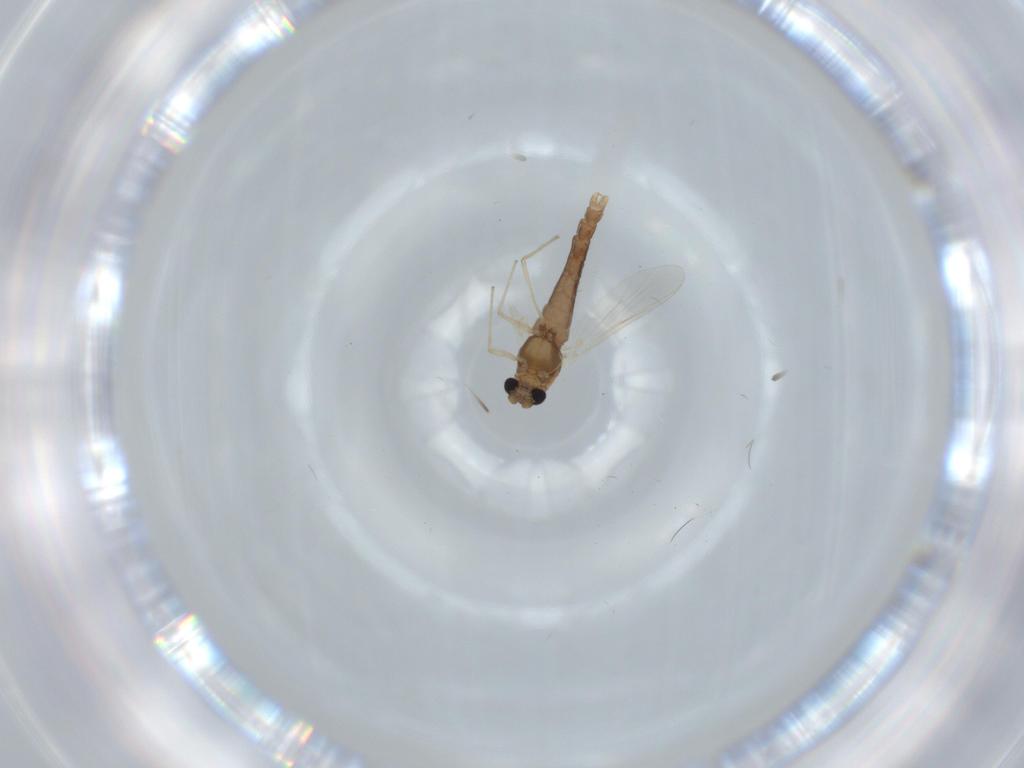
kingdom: Animalia
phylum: Arthropoda
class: Insecta
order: Diptera
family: Chironomidae
